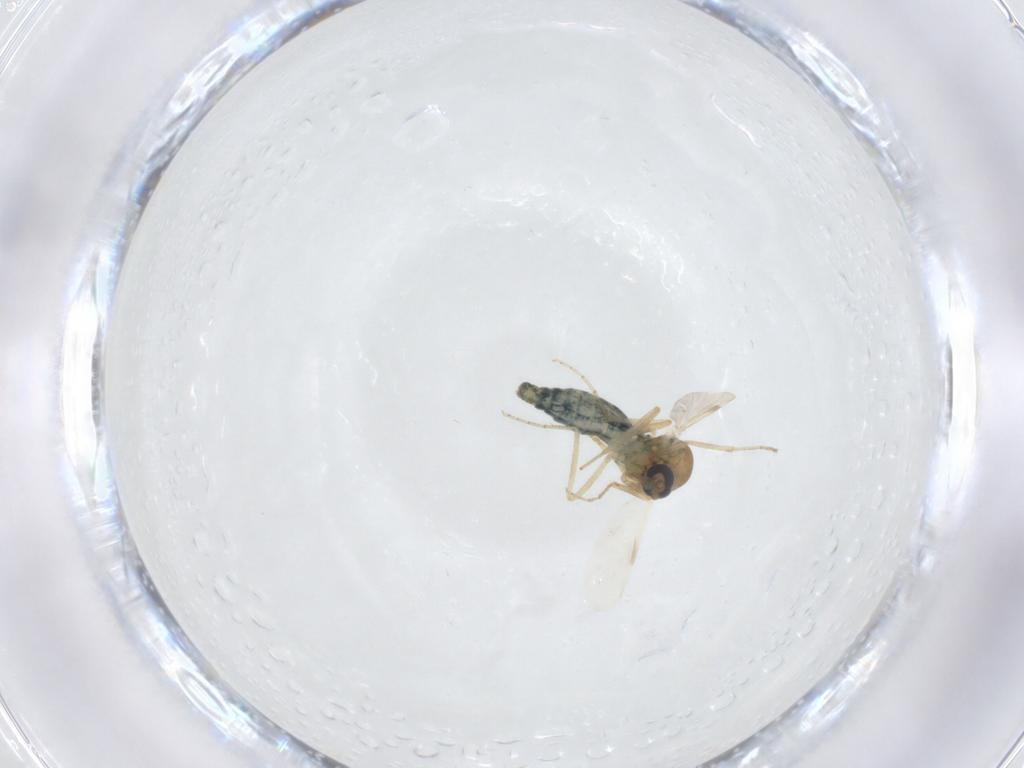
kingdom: Animalia
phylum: Arthropoda
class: Insecta
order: Diptera
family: Ceratopogonidae
